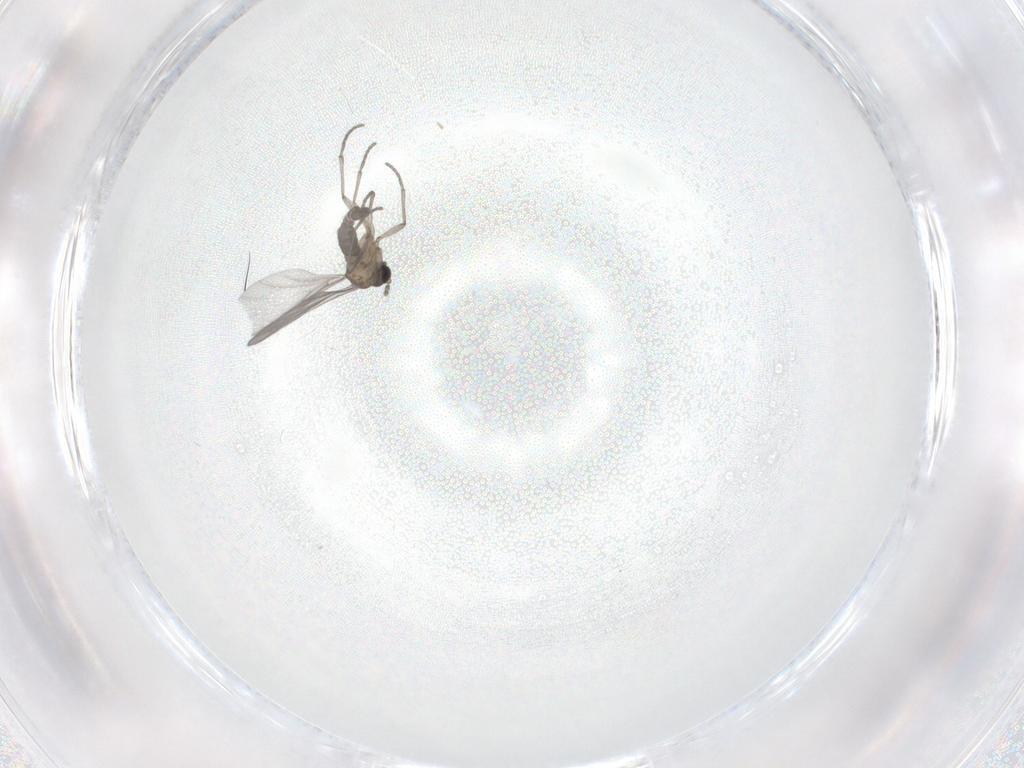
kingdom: Animalia
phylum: Arthropoda
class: Insecta
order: Diptera
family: Sciaridae
